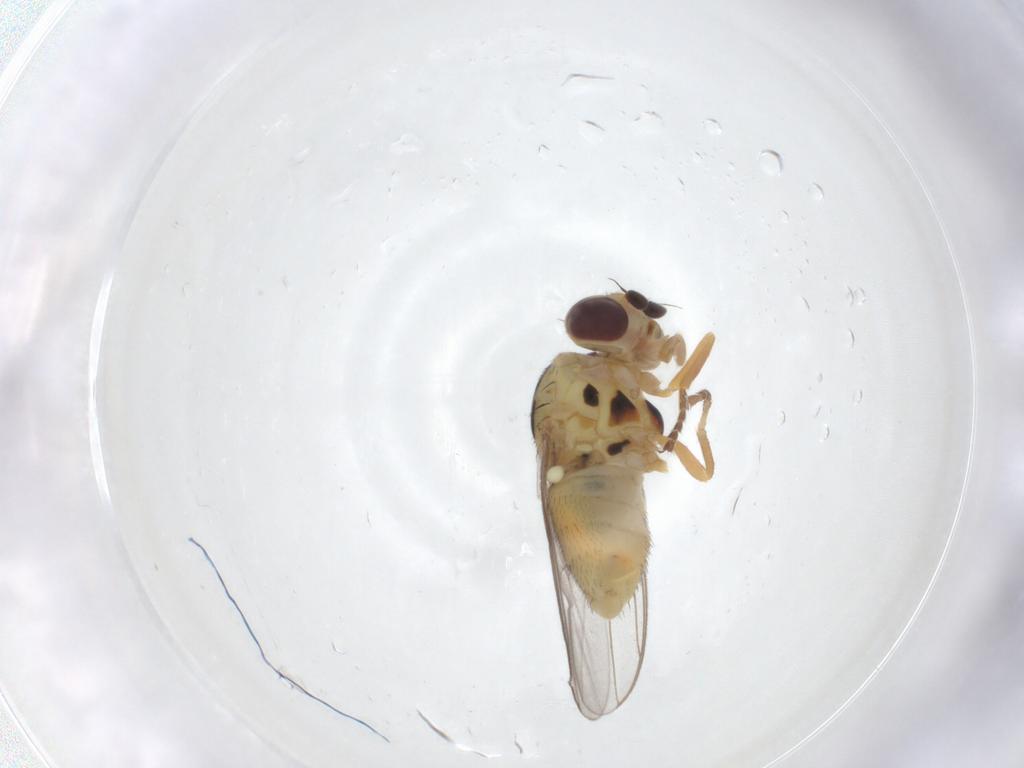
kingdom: Animalia
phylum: Arthropoda
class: Insecta
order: Diptera
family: Chloropidae
